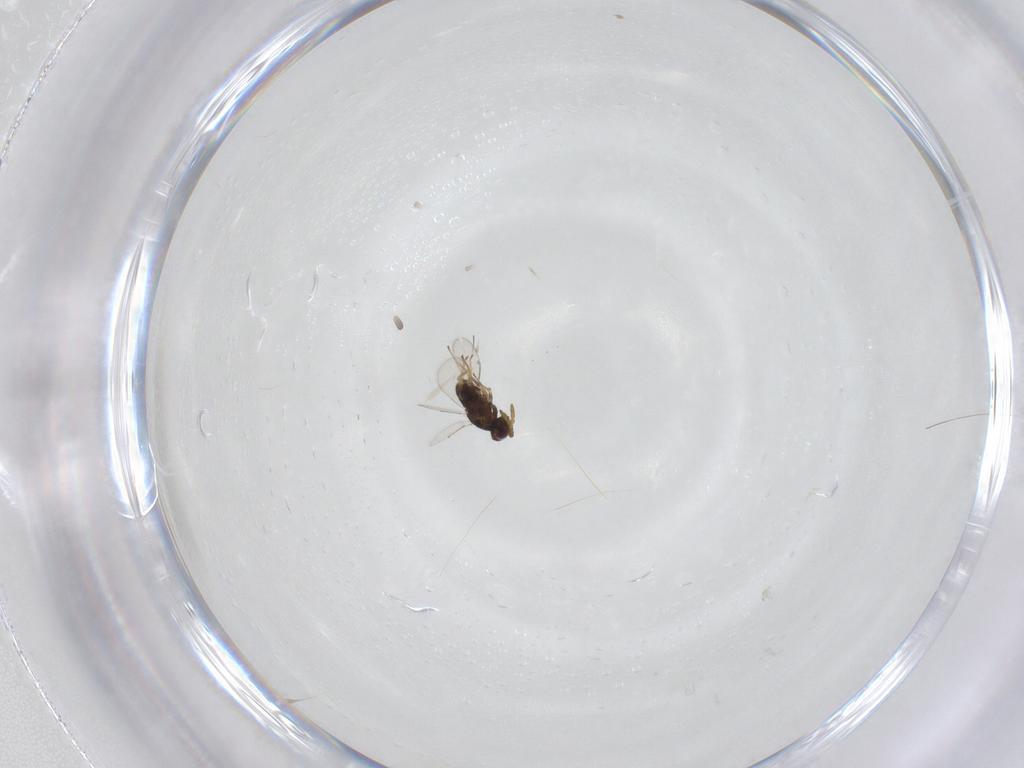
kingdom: Animalia
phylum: Arthropoda
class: Insecta
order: Hymenoptera
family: Aphelinidae
